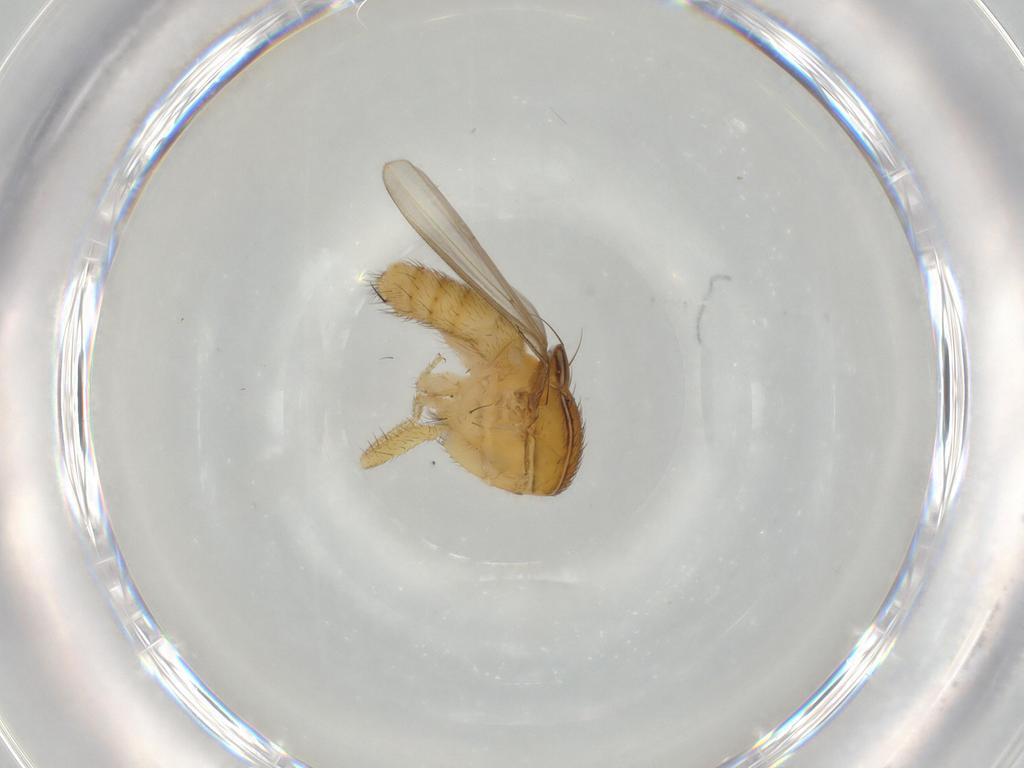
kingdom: Animalia
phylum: Arthropoda
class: Insecta
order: Diptera
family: Drosophilidae
